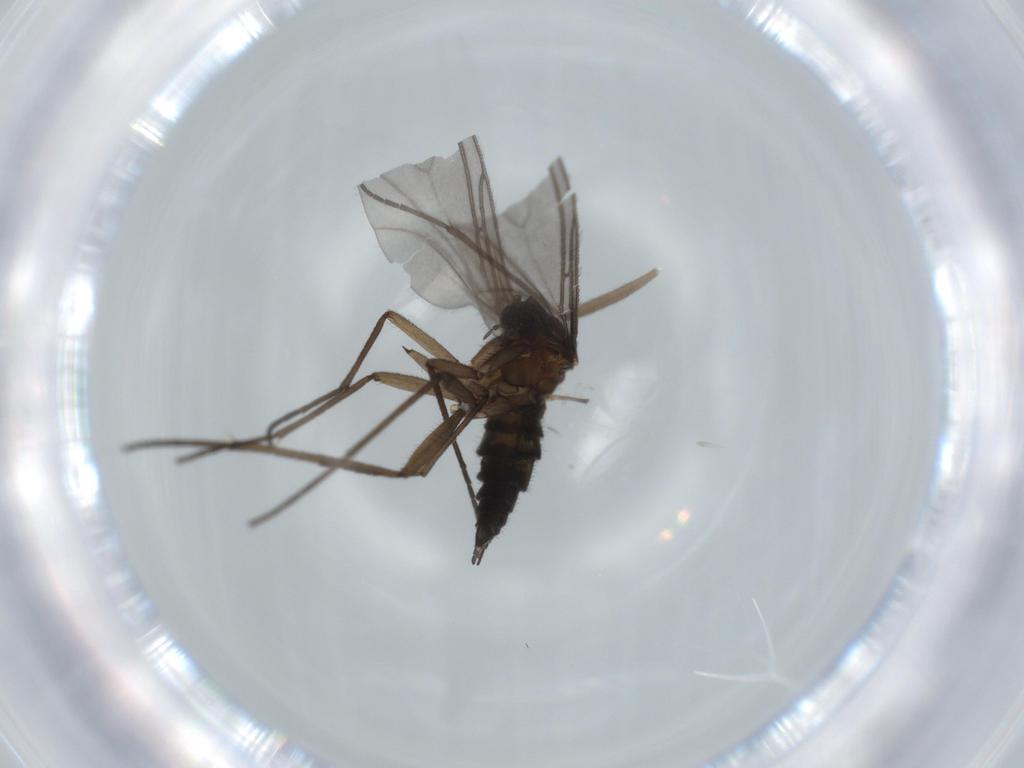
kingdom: Animalia
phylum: Arthropoda
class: Insecta
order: Diptera
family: Sciaridae
